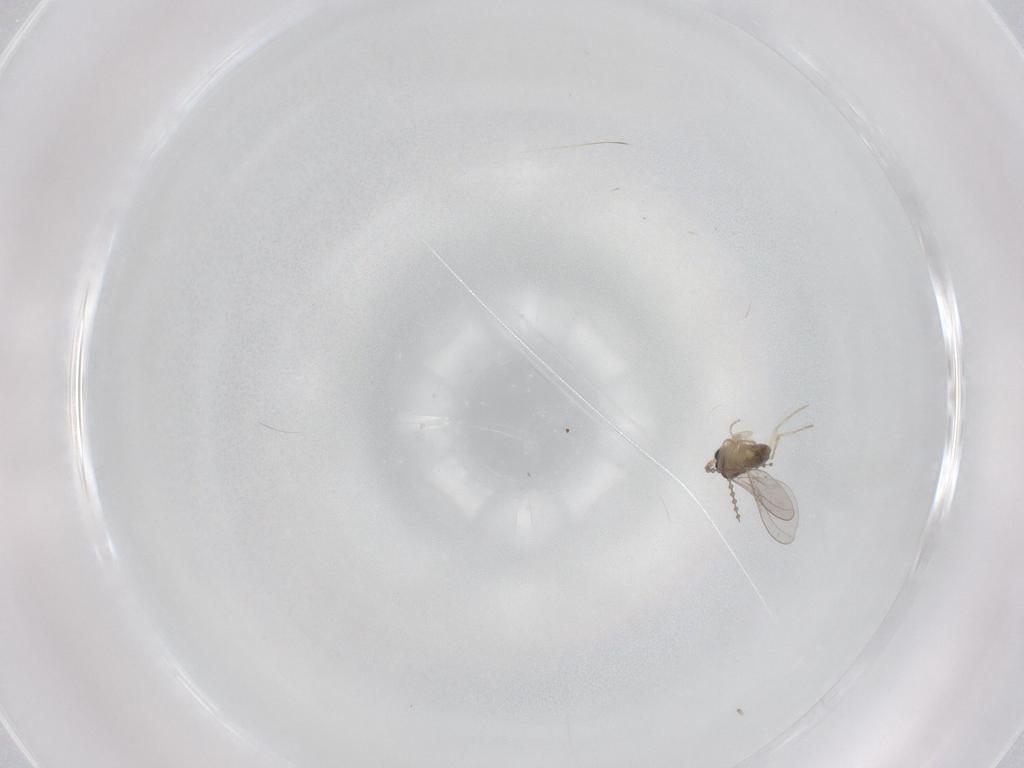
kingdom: Animalia
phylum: Arthropoda
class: Insecta
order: Diptera
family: Cecidomyiidae
